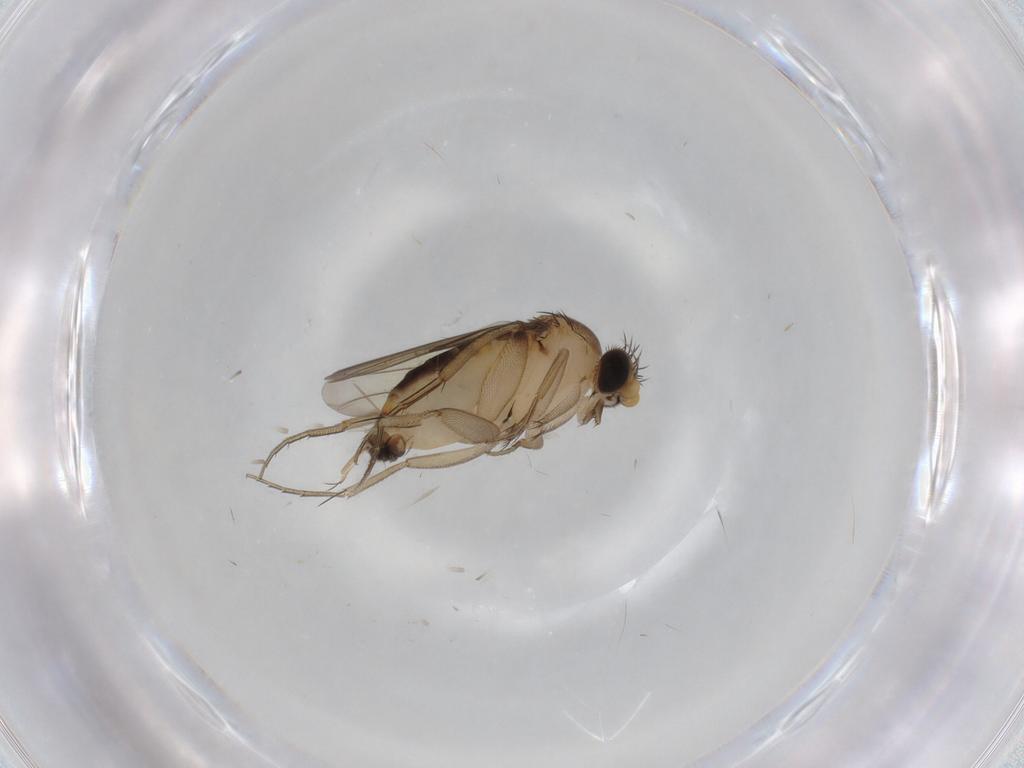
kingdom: Animalia
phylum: Arthropoda
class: Insecta
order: Diptera
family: Phoridae
